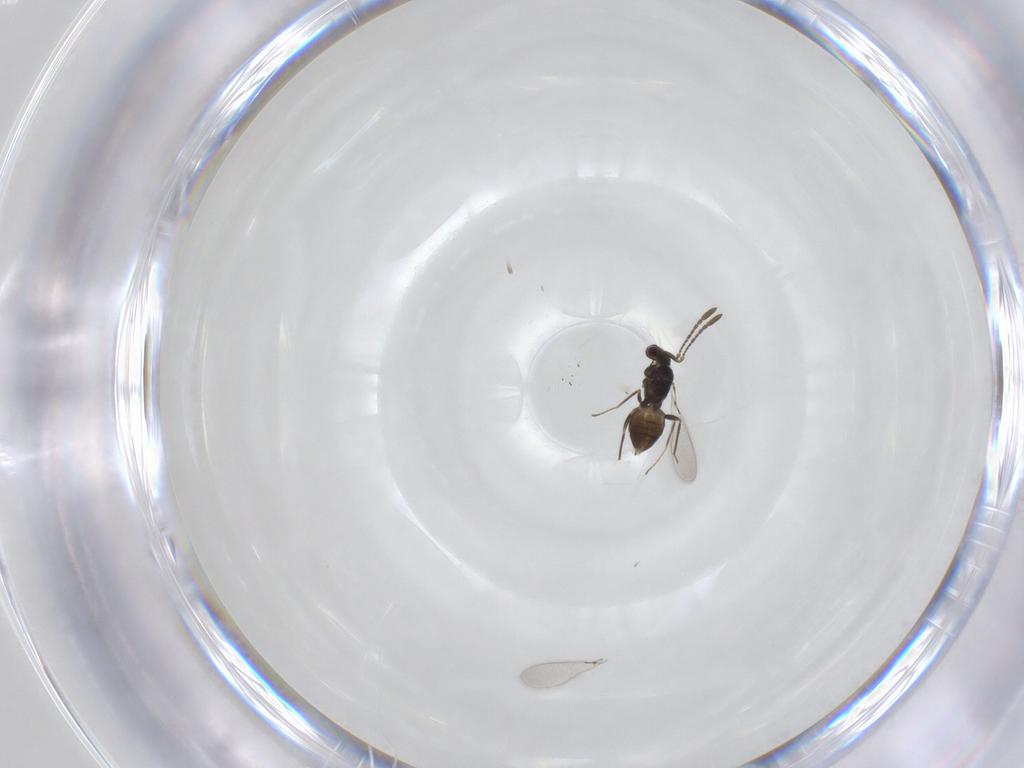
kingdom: Animalia
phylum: Arthropoda
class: Insecta
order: Hymenoptera
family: Mymaridae
